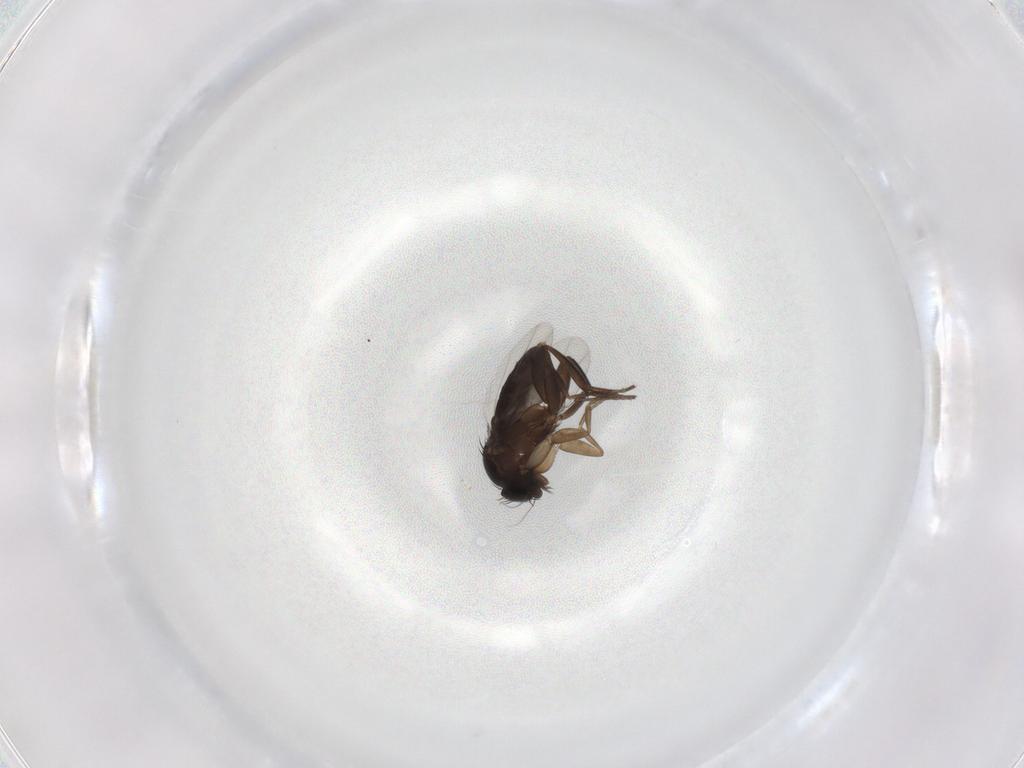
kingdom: Animalia
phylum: Arthropoda
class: Insecta
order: Diptera
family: Phoridae
